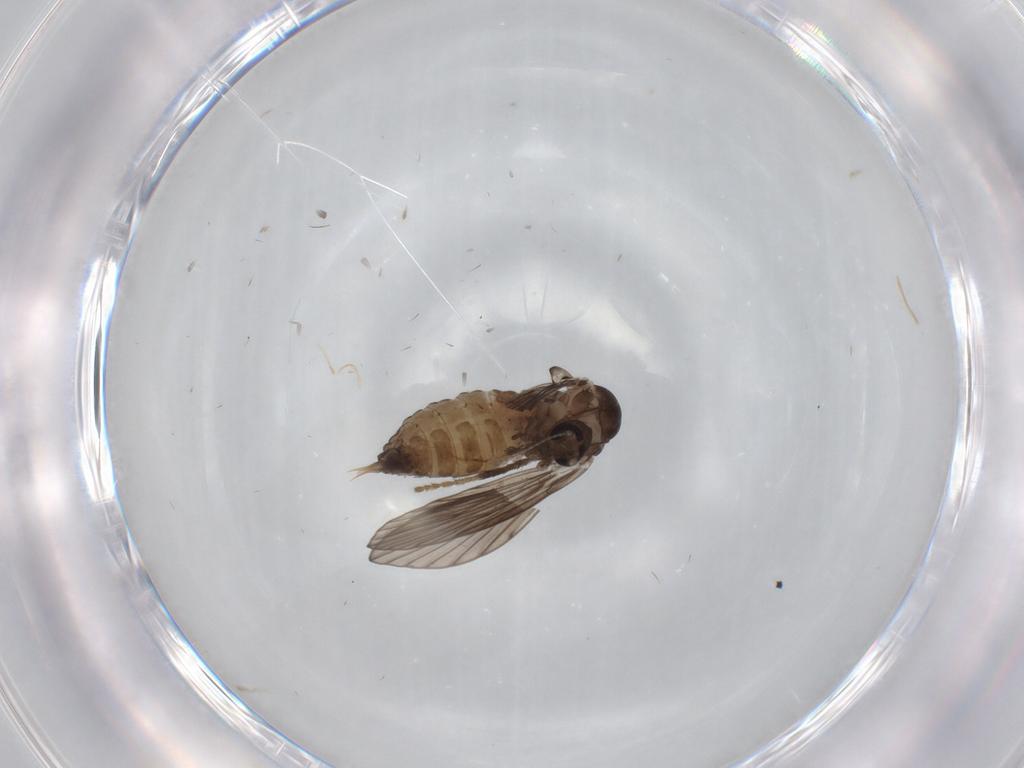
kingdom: Animalia
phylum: Arthropoda
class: Insecta
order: Diptera
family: Psychodidae
